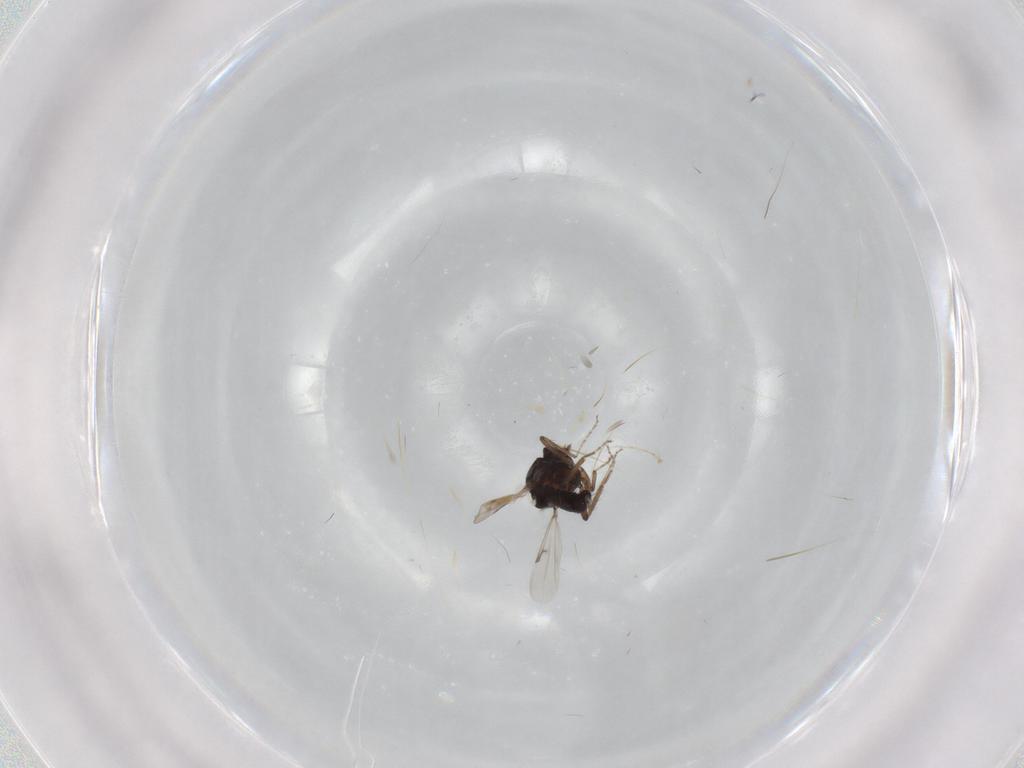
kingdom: Animalia
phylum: Arthropoda
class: Insecta
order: Diptera
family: Ceratopogonidae
